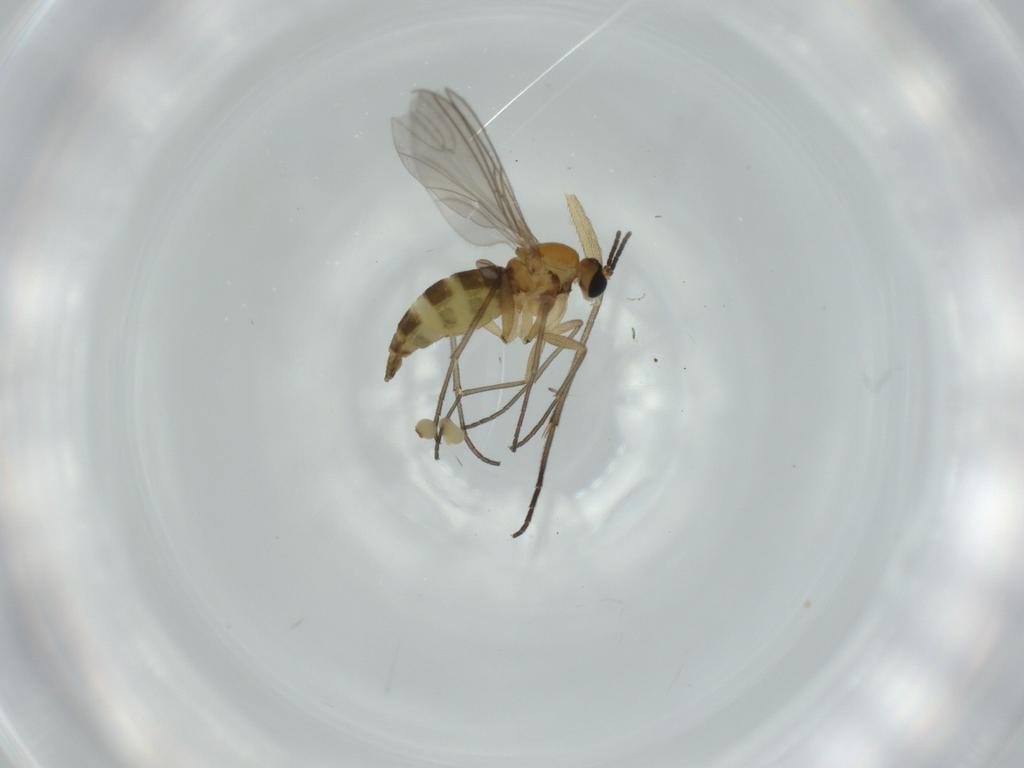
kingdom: Animalia
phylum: Arthropoda
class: Insecta
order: Diptera
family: Sciaridae
